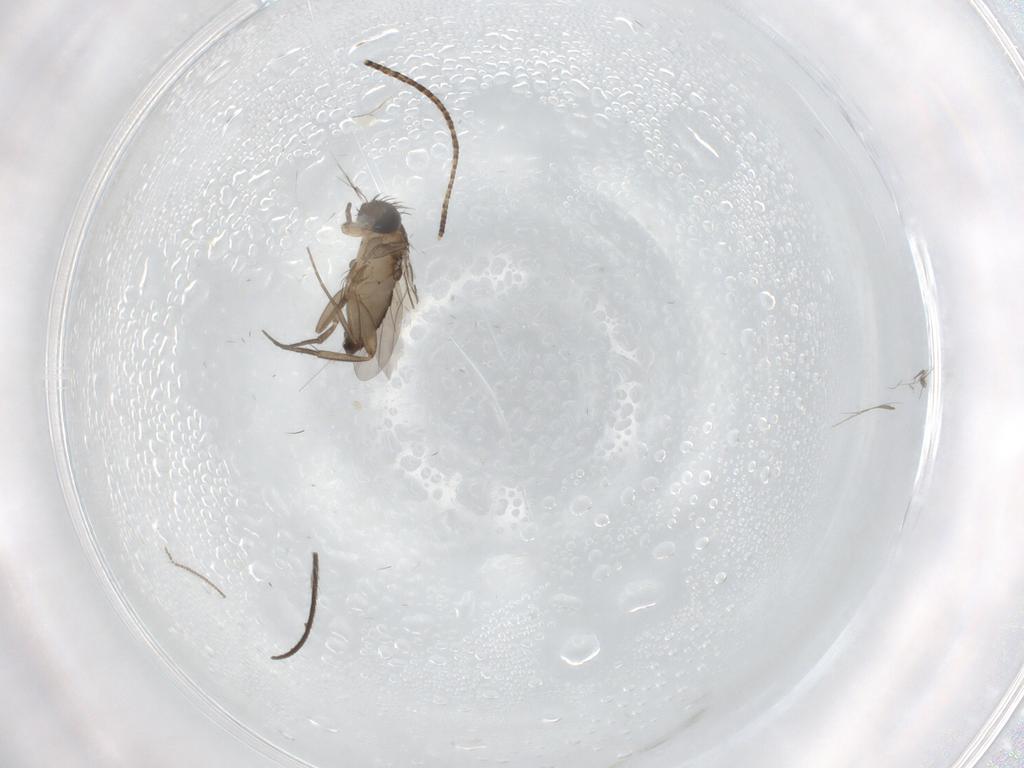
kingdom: Animalia
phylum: Arthropoda
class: Insecta
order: Diptera
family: Phoridae
